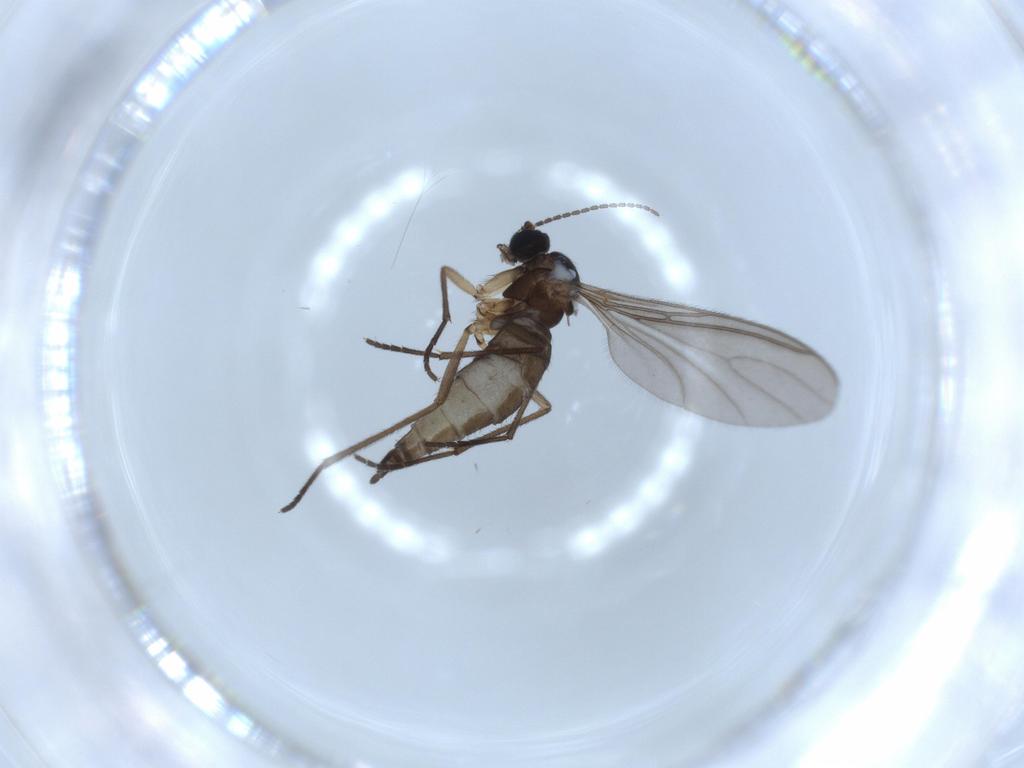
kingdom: Animalia
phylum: Arthropoda
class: Insecta
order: Diptera
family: Sciaridae
